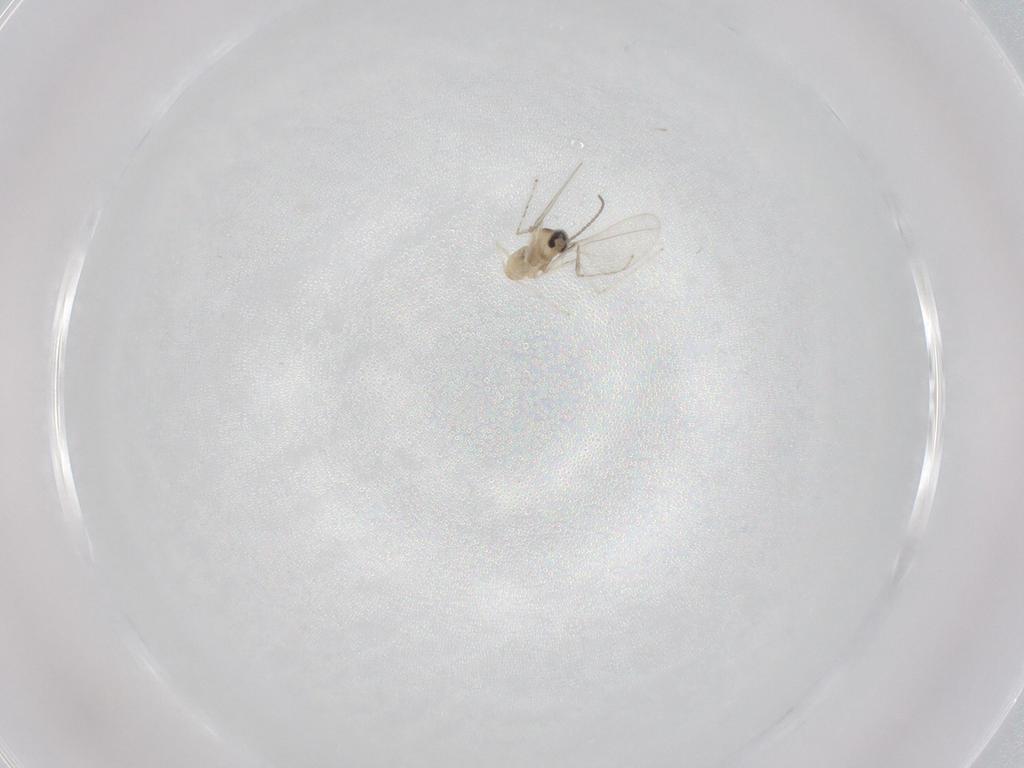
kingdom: Animalia
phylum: Arthropoda
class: Insecta
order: Diptera
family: Cecidomyiidae
